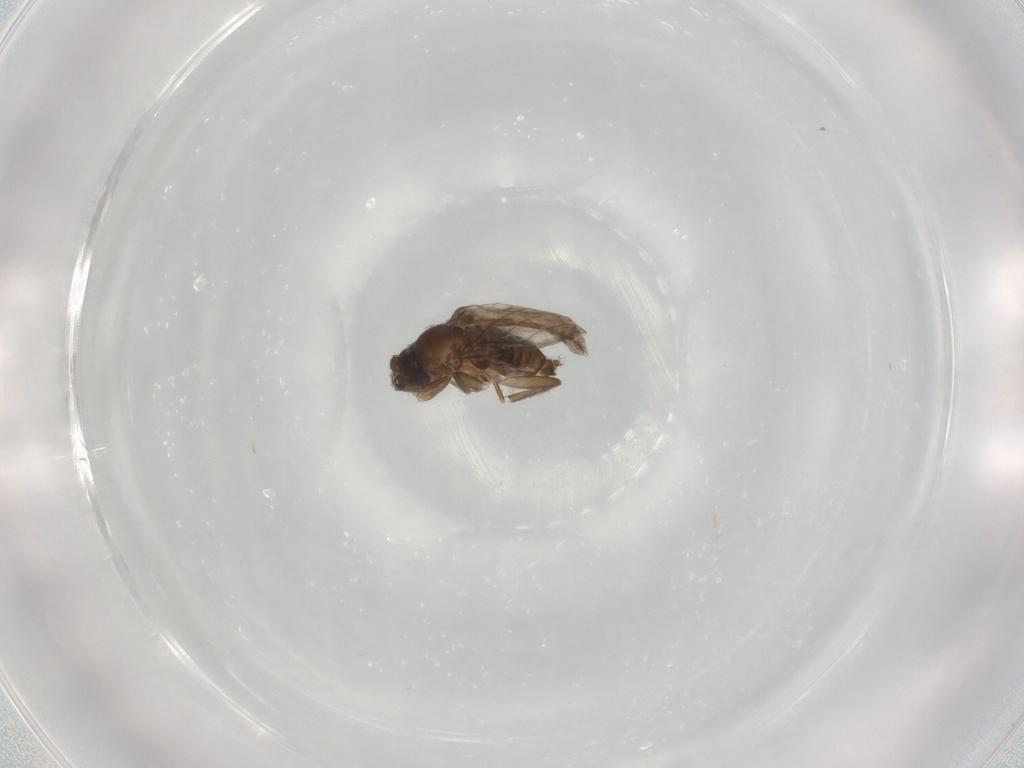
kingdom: Animalia
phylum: Arthropoda
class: Insecta
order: Diptera
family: Phoridae
